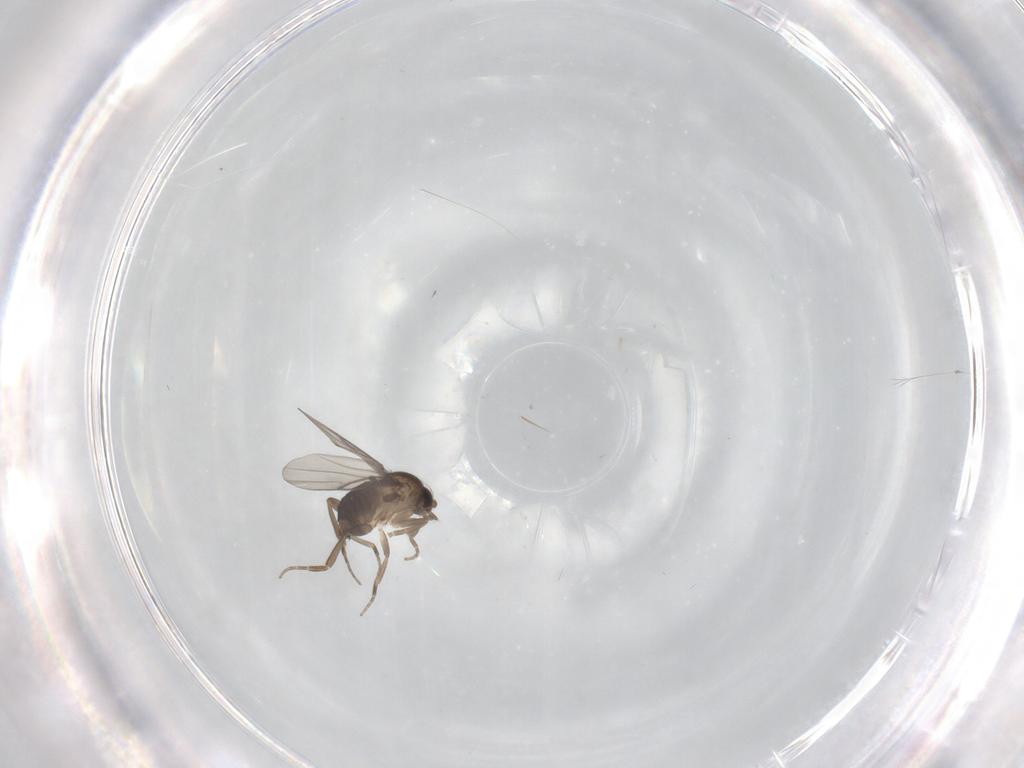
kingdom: Animalia
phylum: Arthropoda
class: Insecta
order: Diptera
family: Phoridae
